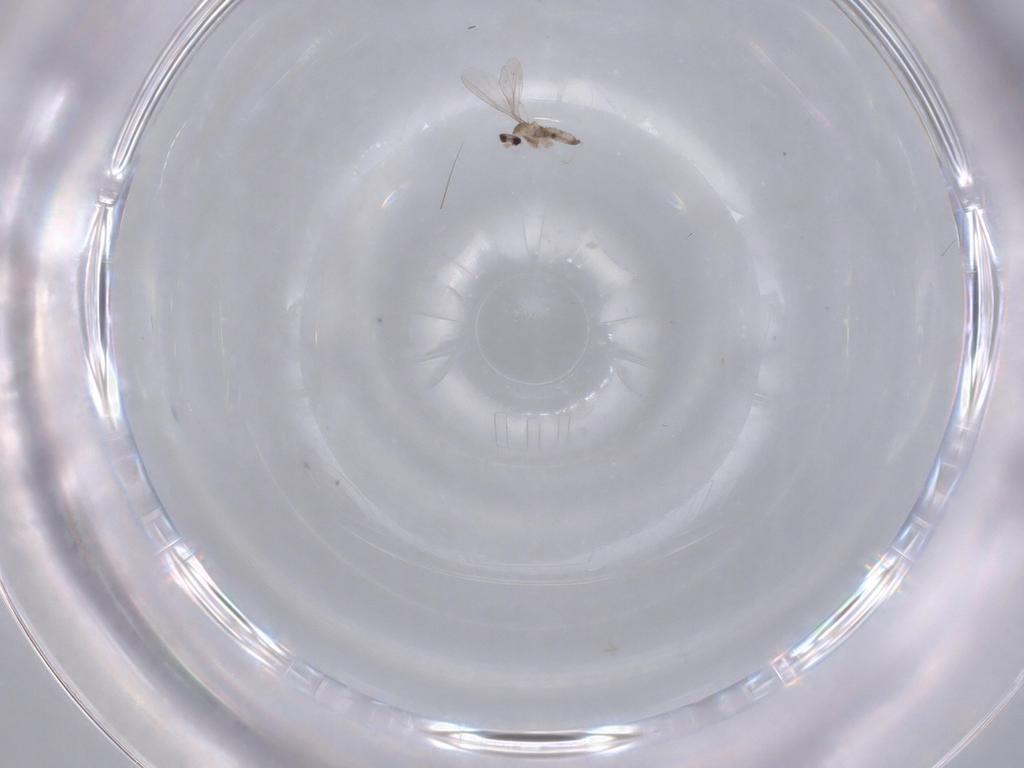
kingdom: Animalia
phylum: Arthropoda
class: Insecta
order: Diptera
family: Cecidomyiidae
